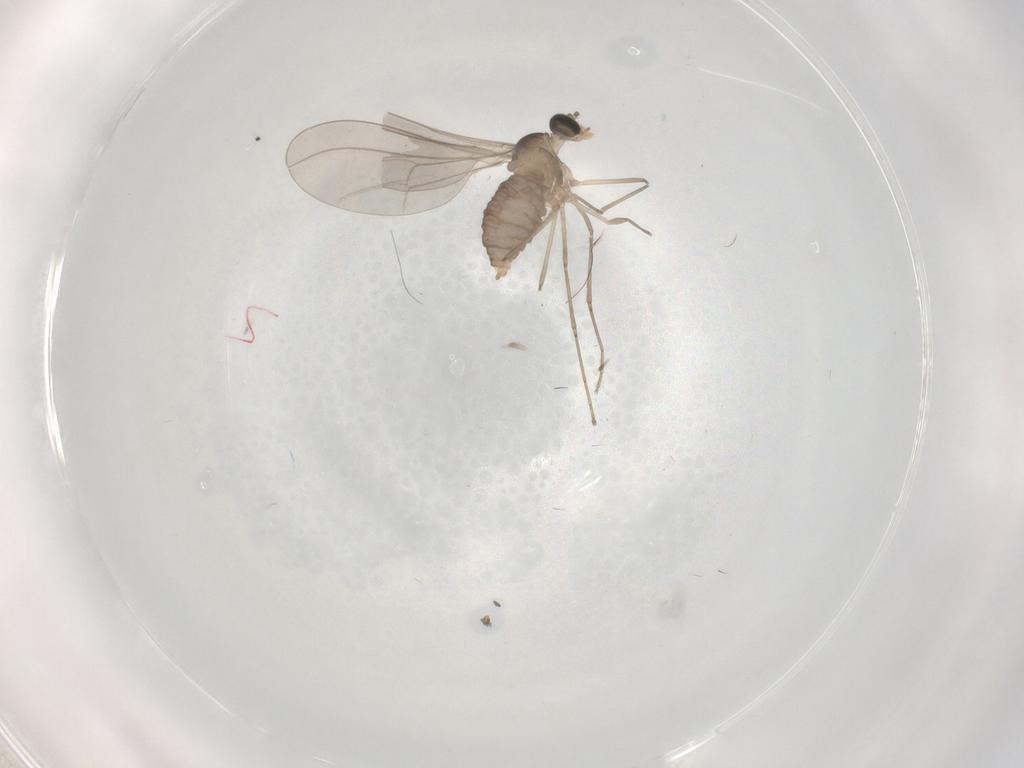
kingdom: Animalia
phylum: Arthropoda
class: Insecta
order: Diptera
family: Cecidomyiidae
